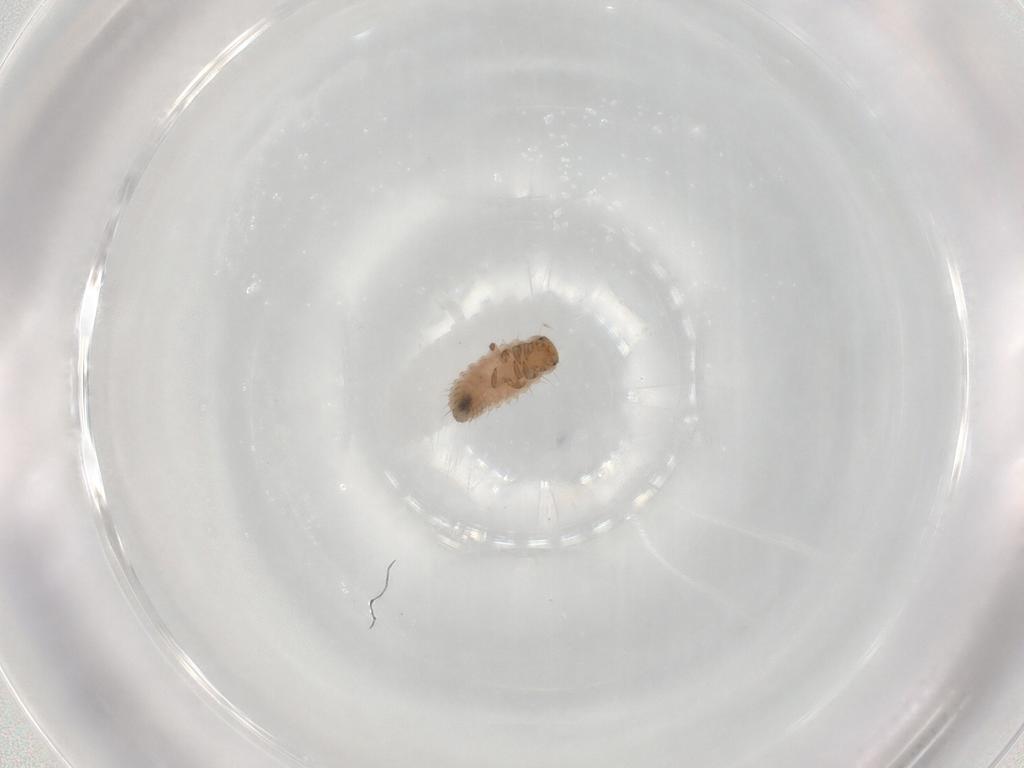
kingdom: Animalia
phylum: Arthropoda
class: Insecta
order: Coleoptera
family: Coccinellidae
